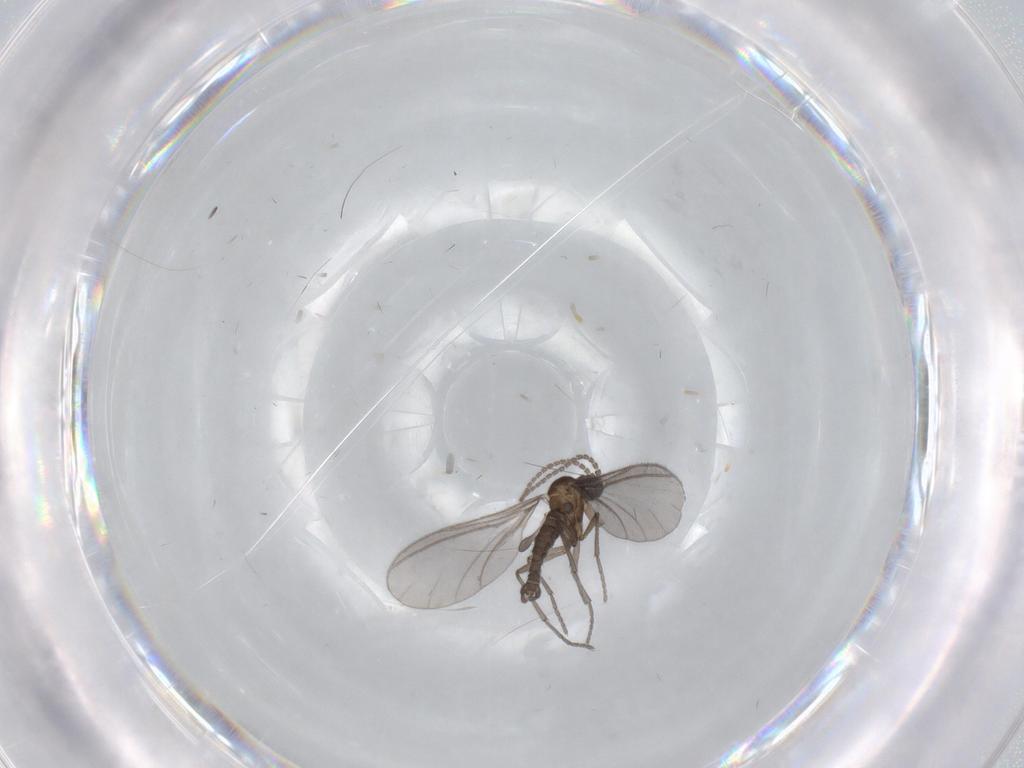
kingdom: Animalia
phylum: Arthropoda
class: Insecta
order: Diptera
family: Sciaridae
